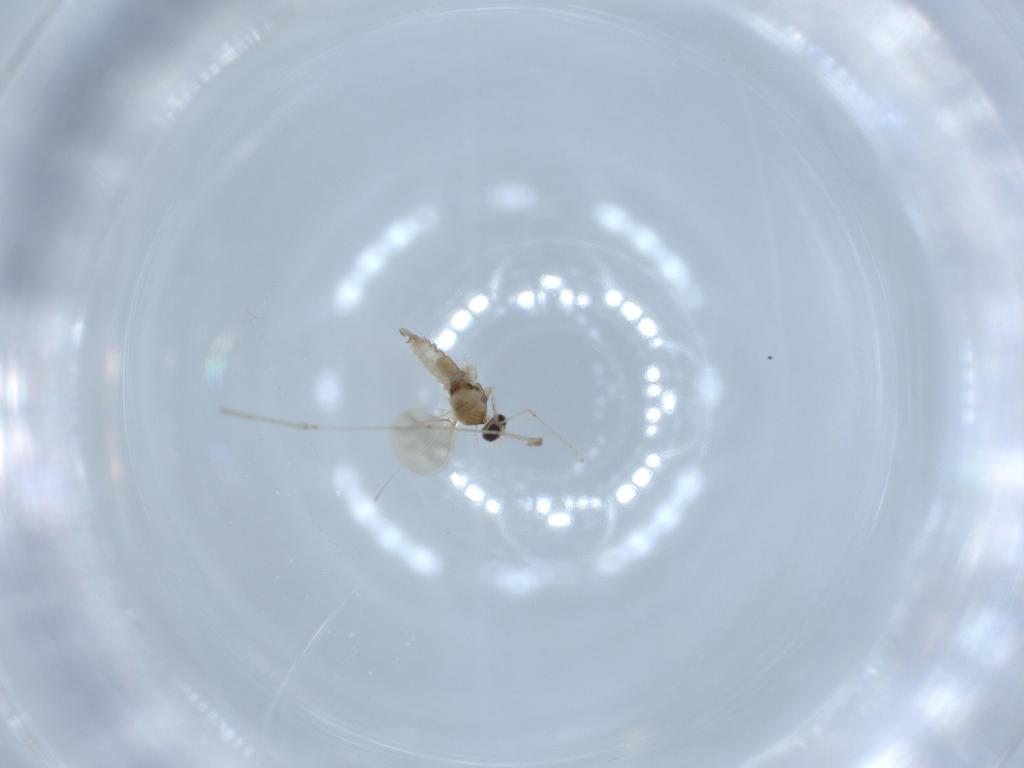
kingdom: Animalia
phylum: Arthropoda
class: Insecta
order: Diptera
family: Cecidomyiidae
